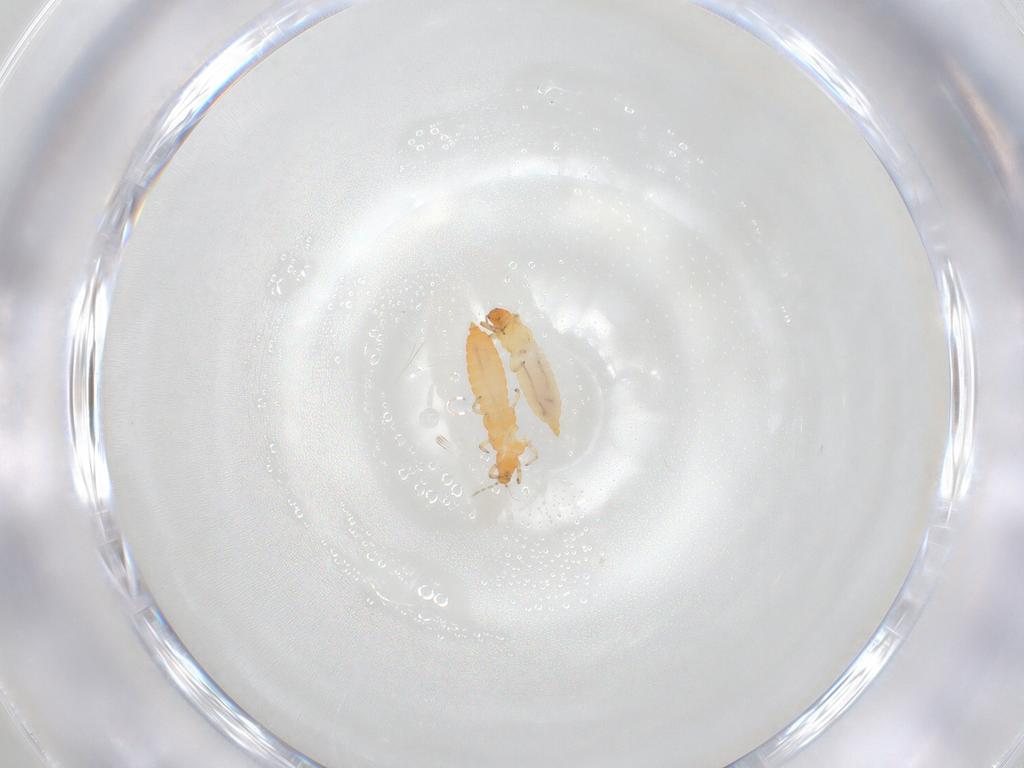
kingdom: Animalia
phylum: Arthropoda
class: Insecta
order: Thysanoptera
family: Aeolothripidae
